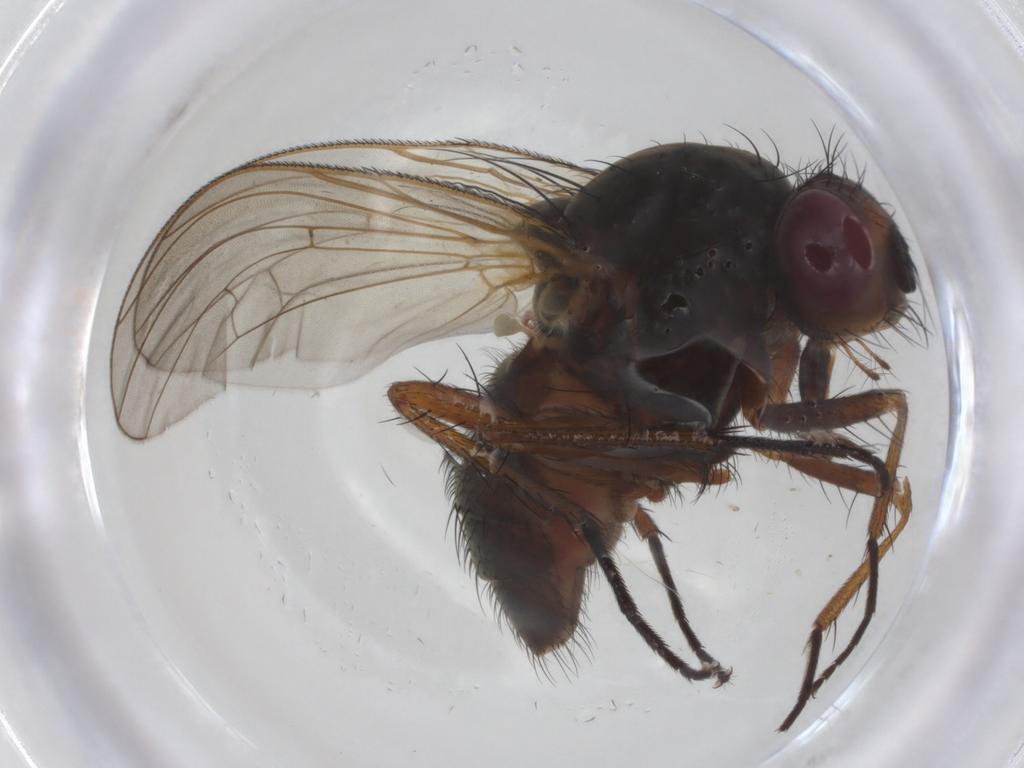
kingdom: Animalia
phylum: Arthropoda
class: Insecta
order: Diptera
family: Anthomyiidae
